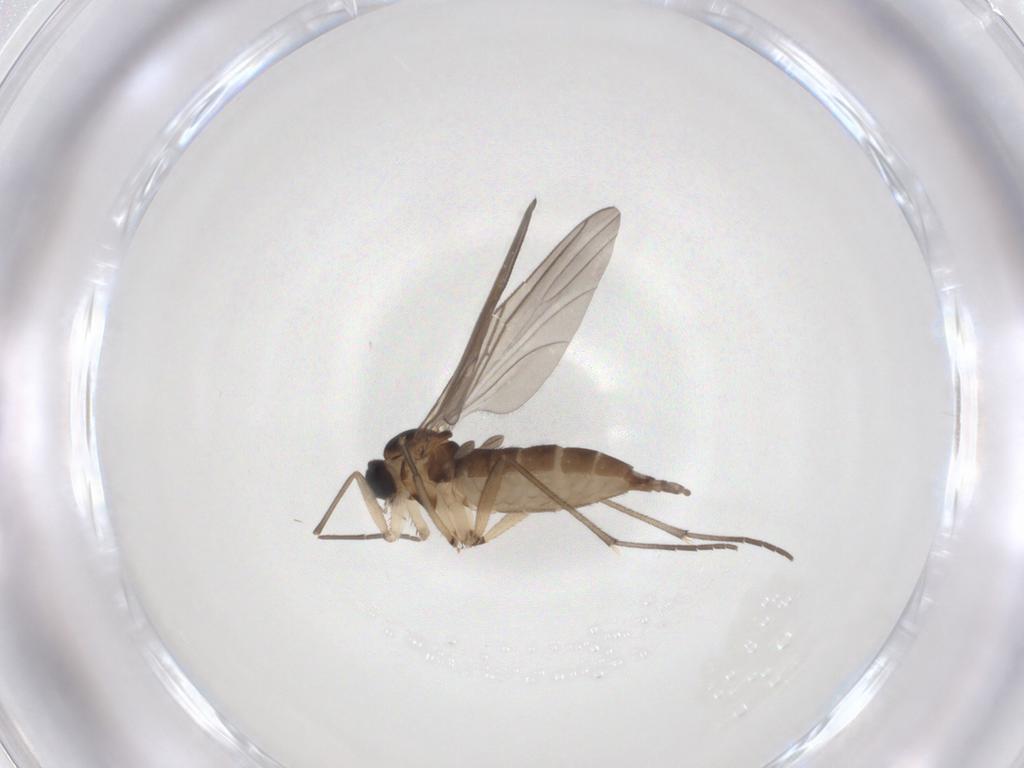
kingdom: Animalia
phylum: Arthropoda
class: Insecta
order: Diptera
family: Sciaridae
